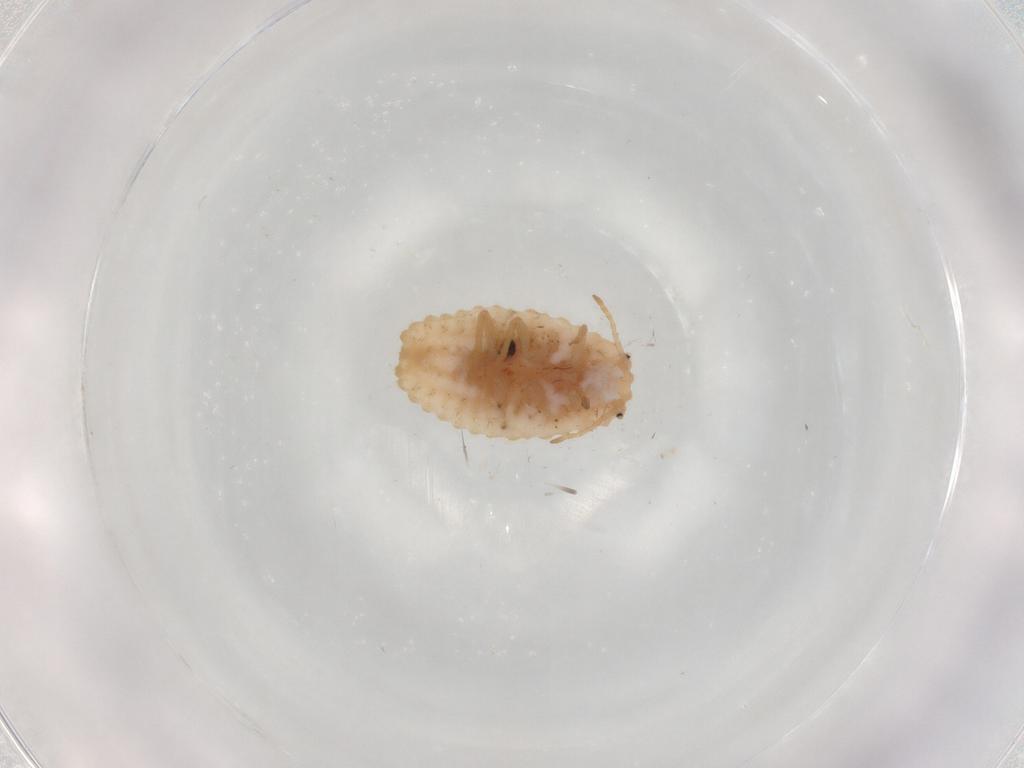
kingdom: Animalia
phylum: Arthropoda
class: Insecta
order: Hemiptera
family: Coccoidea_incertae_sedis
